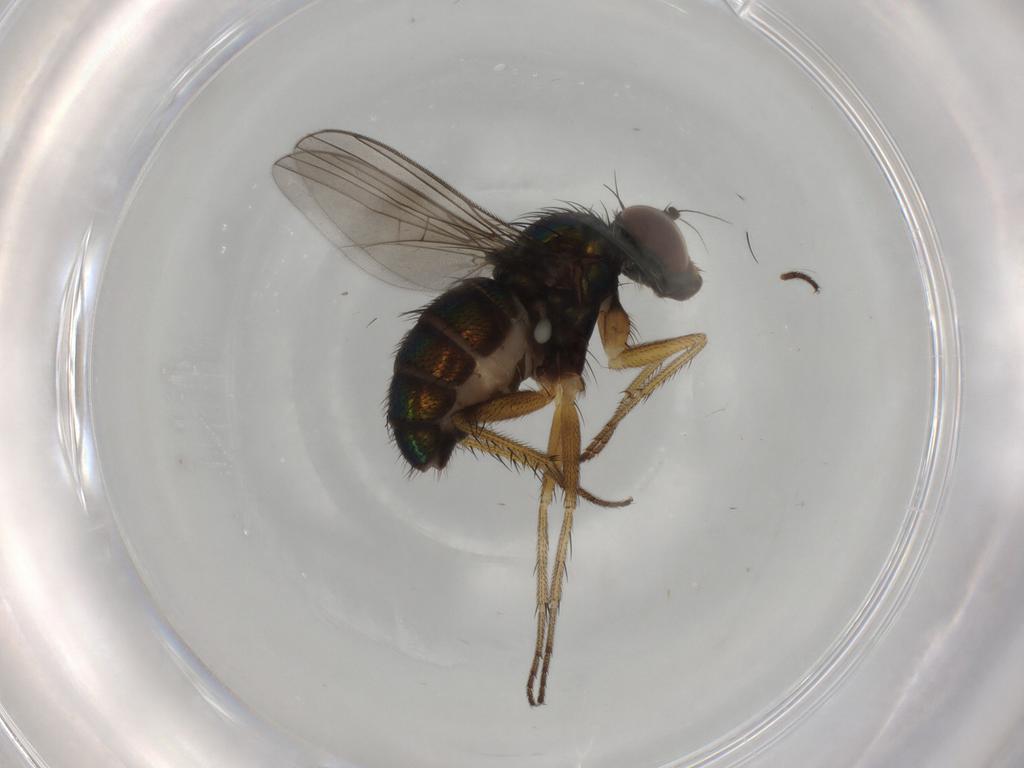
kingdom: Animalia
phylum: Arthropoda
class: Insecta
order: Diptera
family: Dolichopodidae
